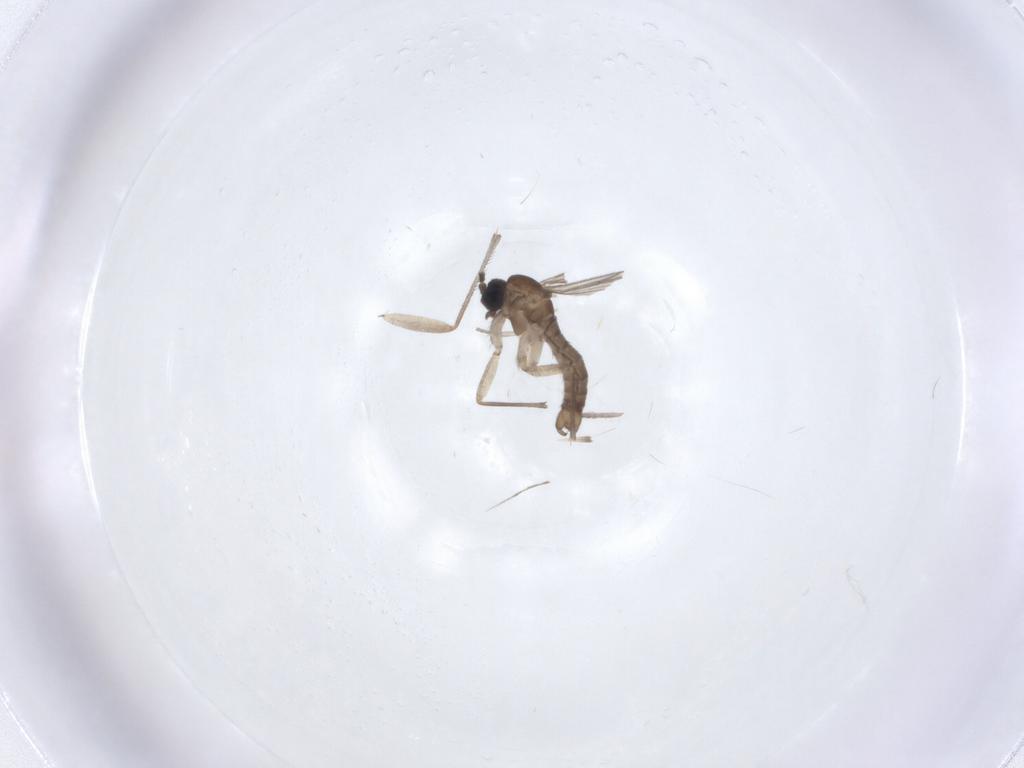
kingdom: Animalia
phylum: Arthropoda
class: Insecta
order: Diptera
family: Sciaridae
